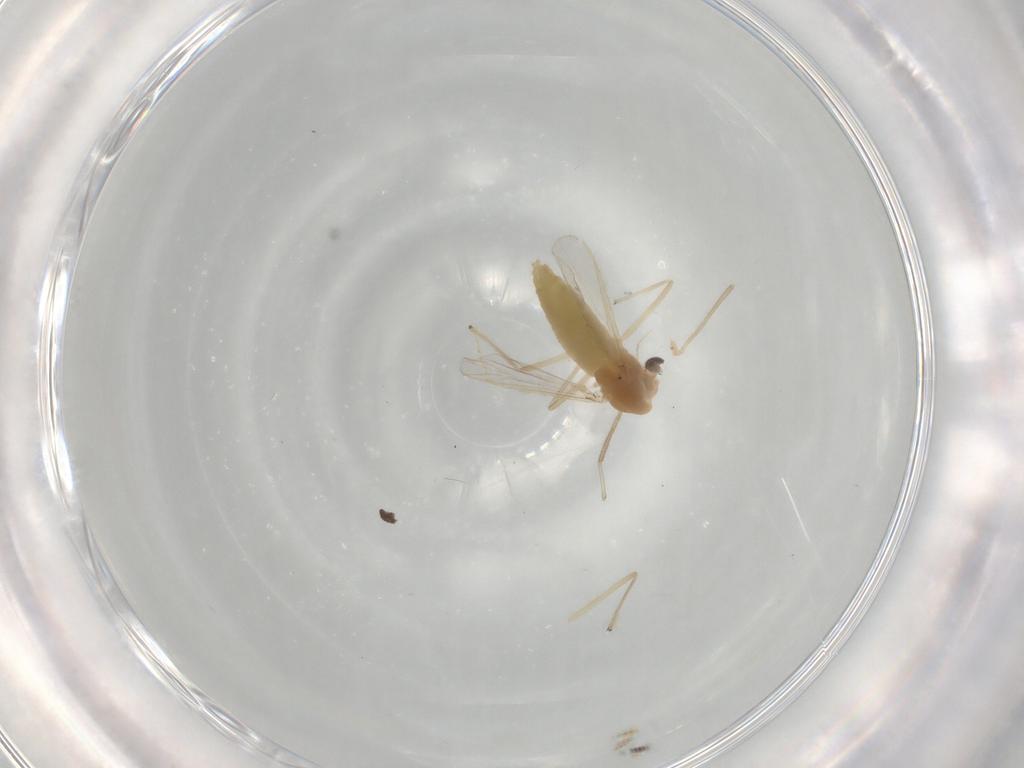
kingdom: Animalia
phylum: Arthropoda
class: Insecta
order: Diptera
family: Chironomidae
